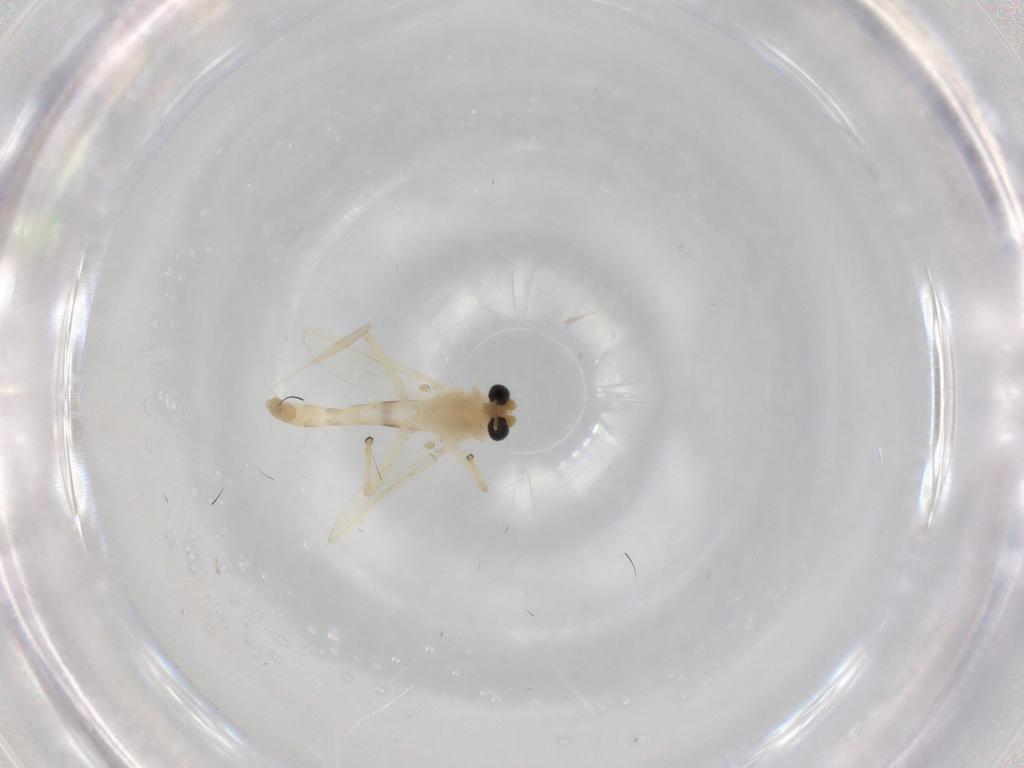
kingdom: Animalia
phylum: Arthropoda
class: Insecta
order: Diptera
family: Chironomidae
